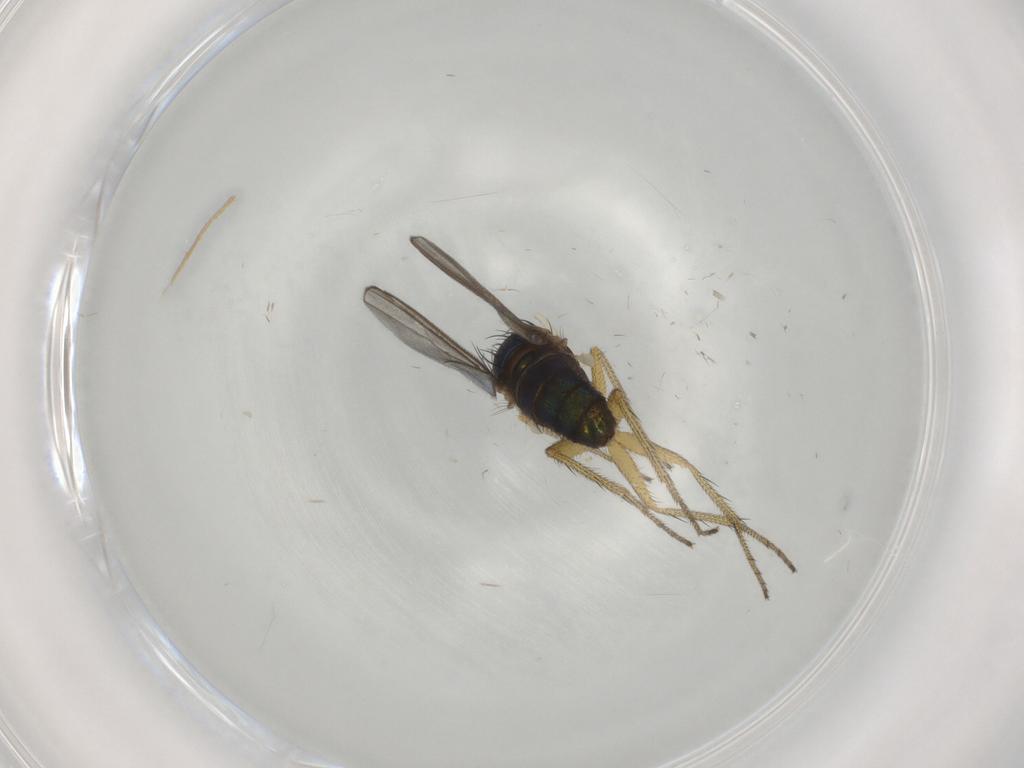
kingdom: Animalia
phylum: Arthropoda
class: Insecta
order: Diptera
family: Dolichopodidae
